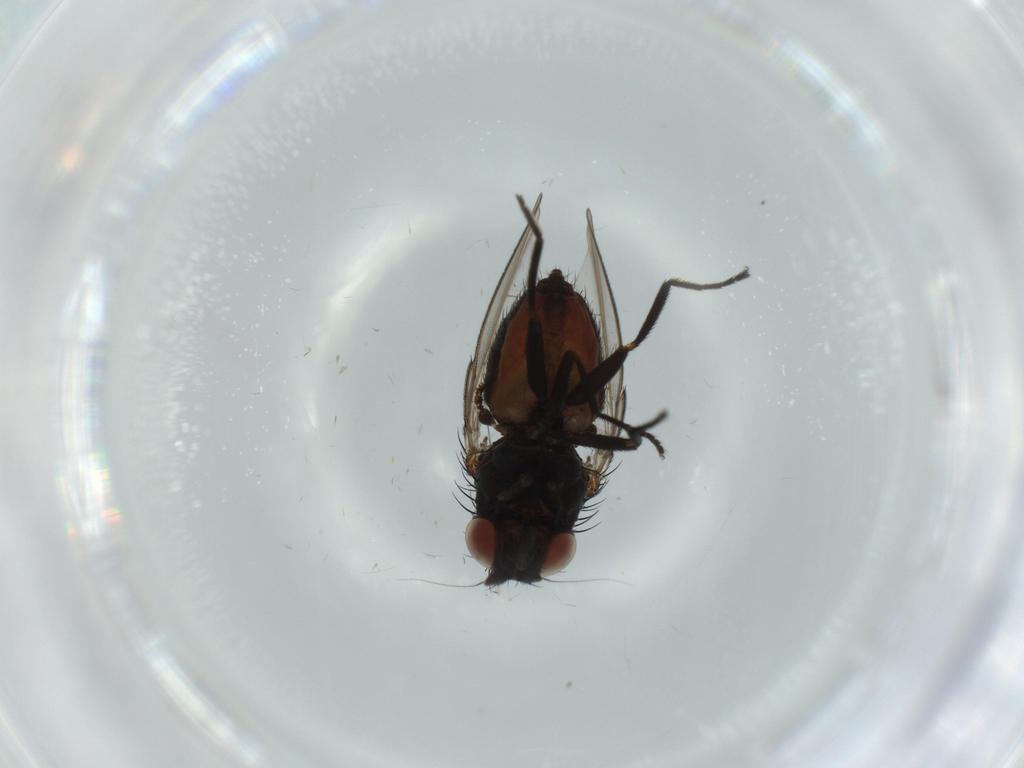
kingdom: Animalia
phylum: Arthropoda
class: Insecta
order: Diptera
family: Milichiidae
